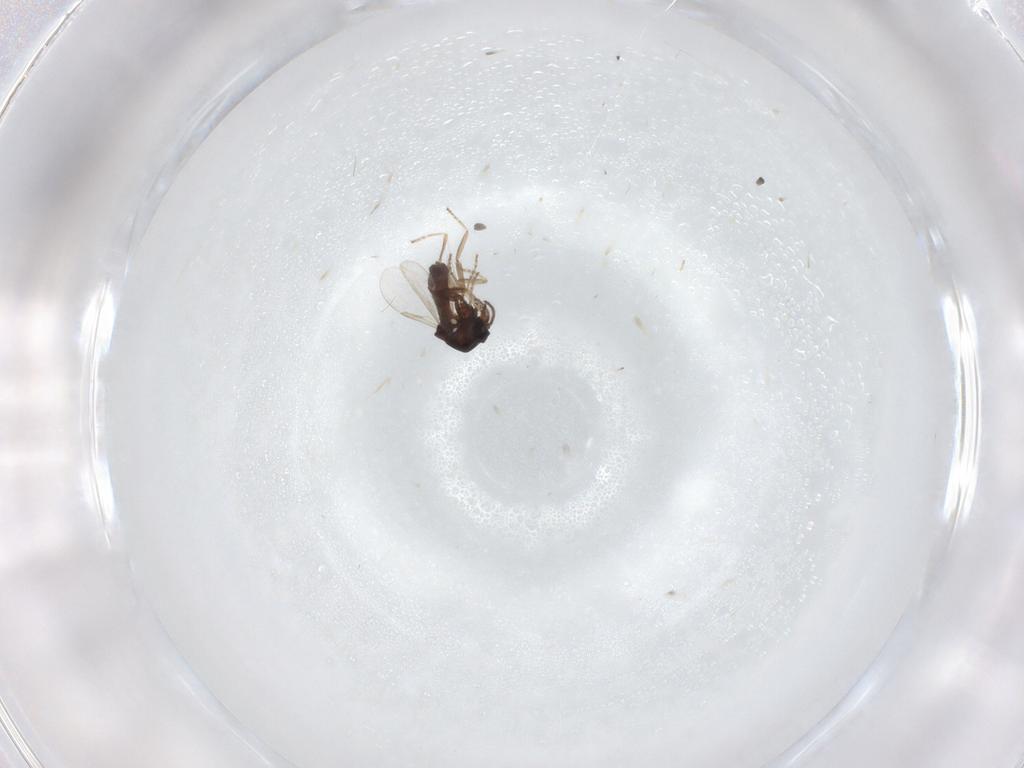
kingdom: Animalia
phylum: Arthropoda
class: Insecta
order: Diptera
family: Ceratopogonidae
